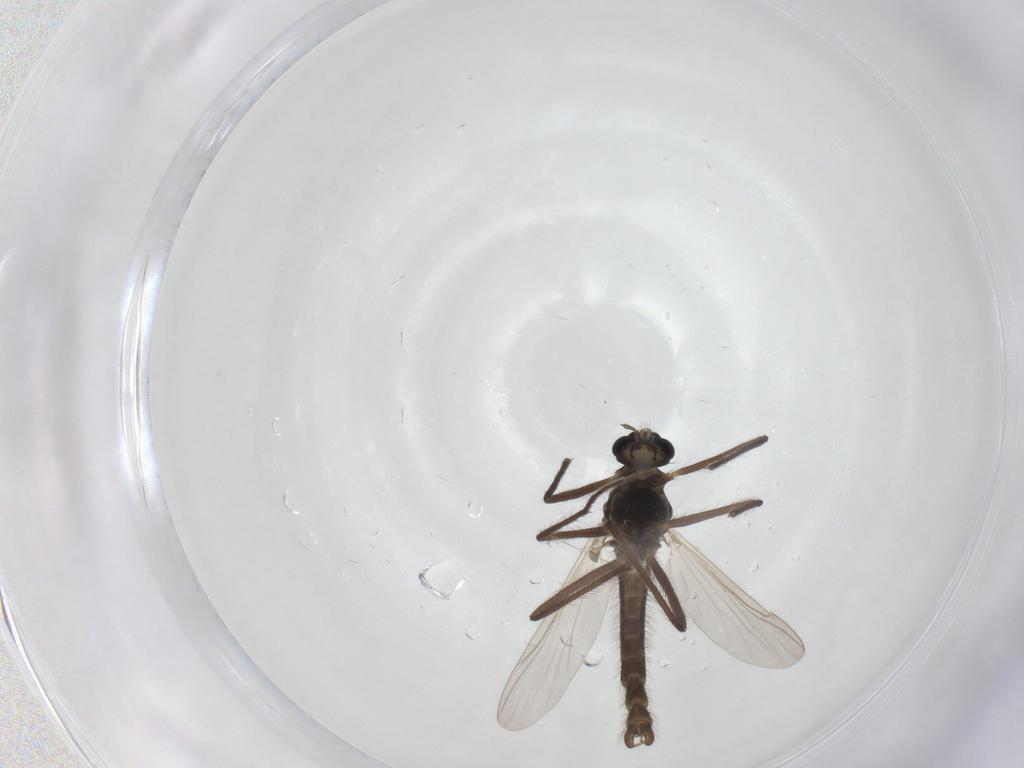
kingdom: Animalia
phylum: Arthropoda
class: Insecta
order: Diptera
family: Chironomidae
